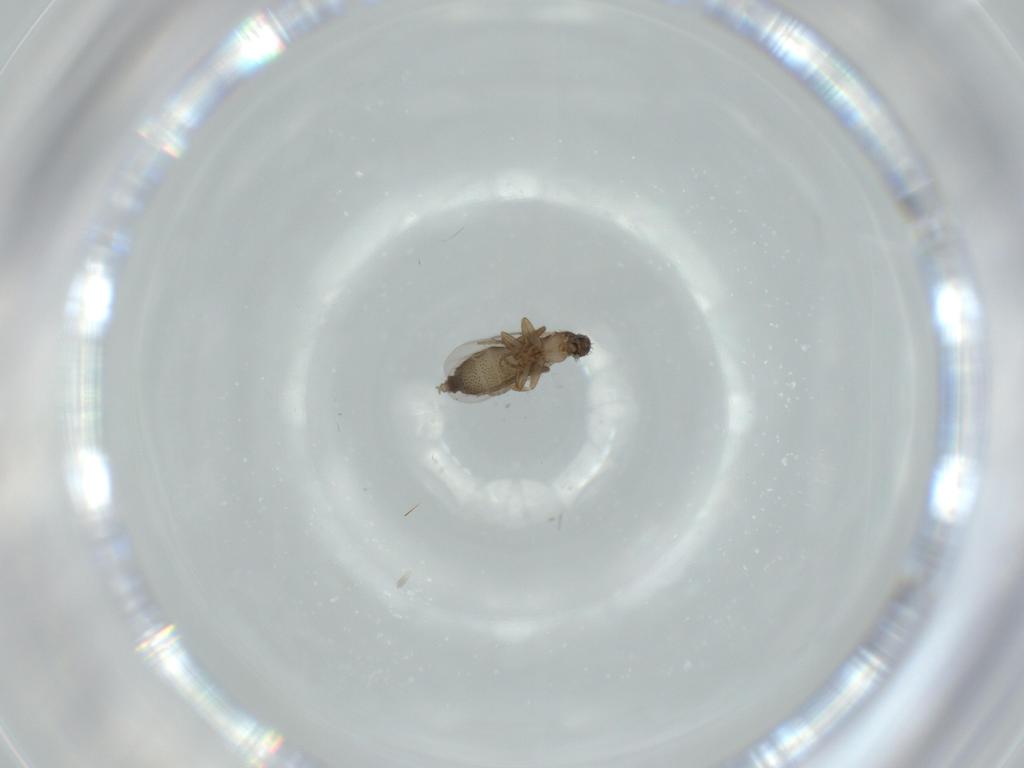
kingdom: Animalia
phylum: Arthropoda
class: Insecta
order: Diptera
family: Phoridae
